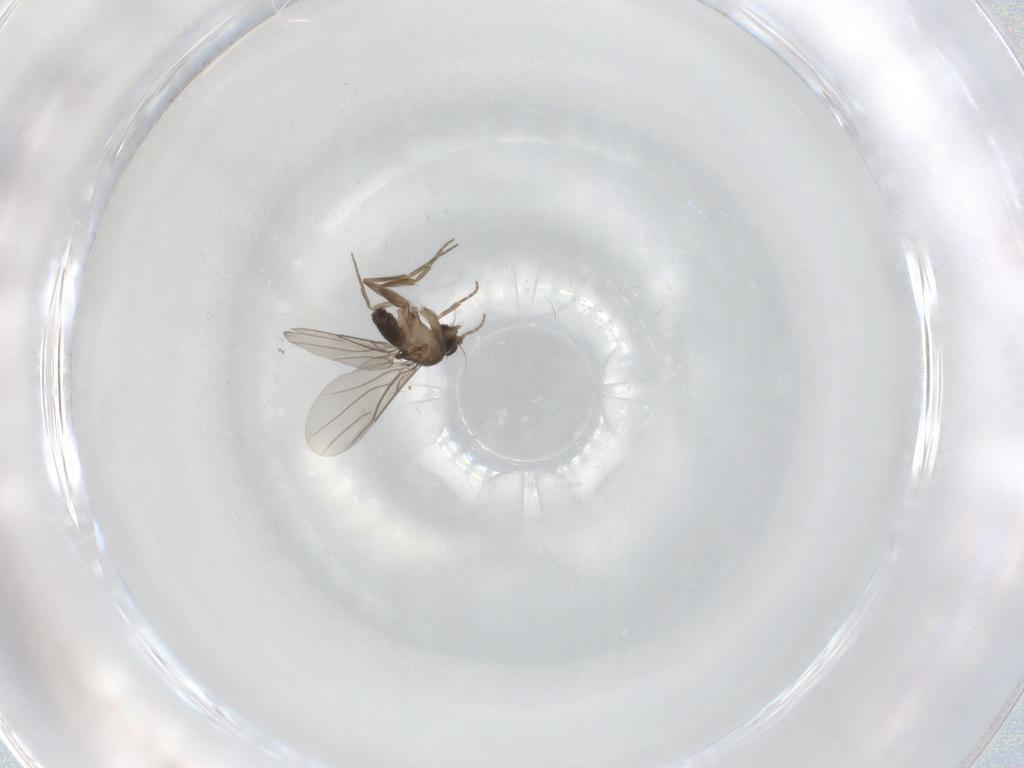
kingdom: Animalia
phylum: Arthropoda
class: Insecta
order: Diptera
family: Phoridae
